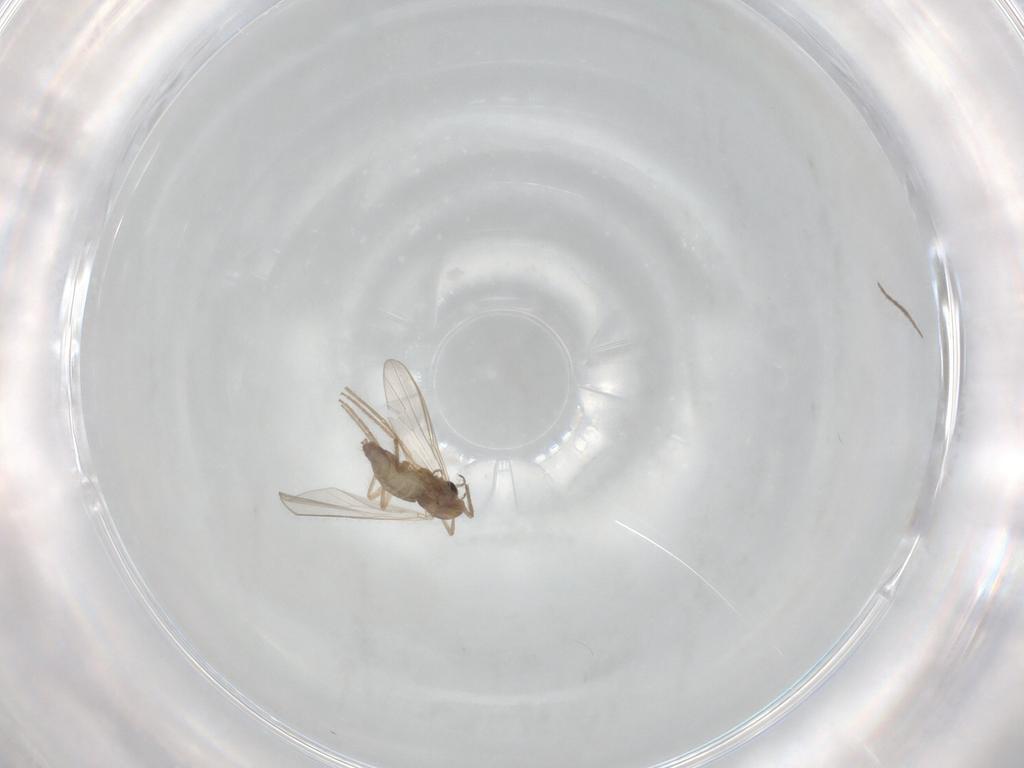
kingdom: Animalia
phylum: Arthropoda
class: Insecta
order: Diptera
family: Chironomidae
